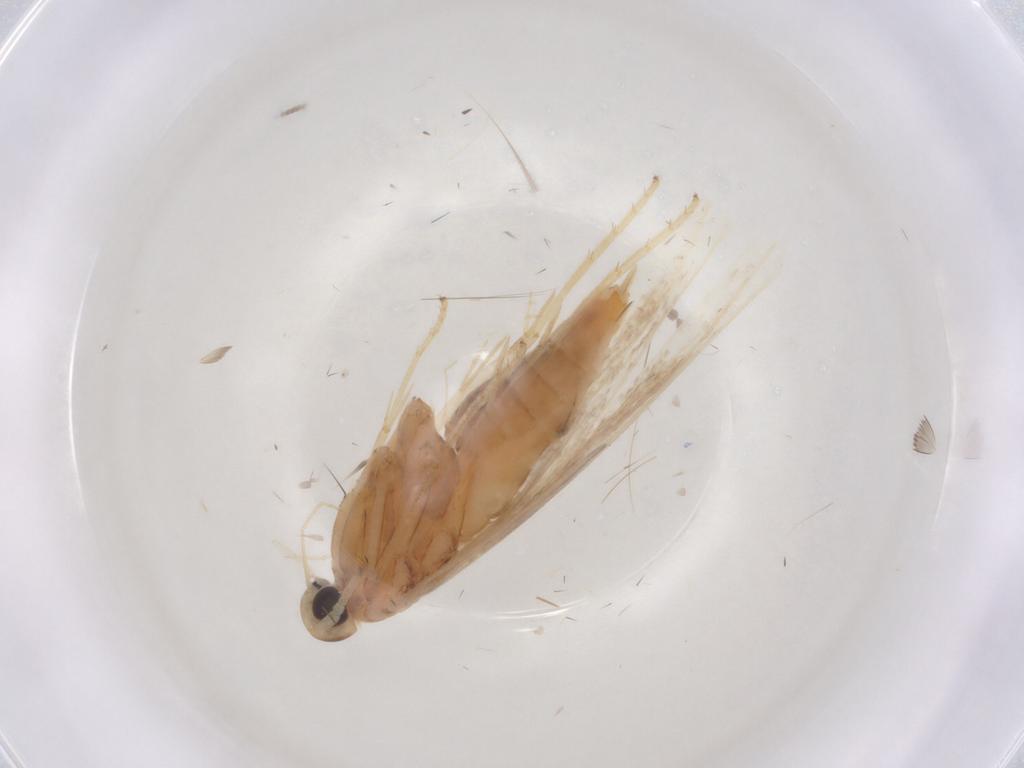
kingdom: Animalia
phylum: Arthropoda
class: Insecta
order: Lepidoptera
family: Coleophoridae
